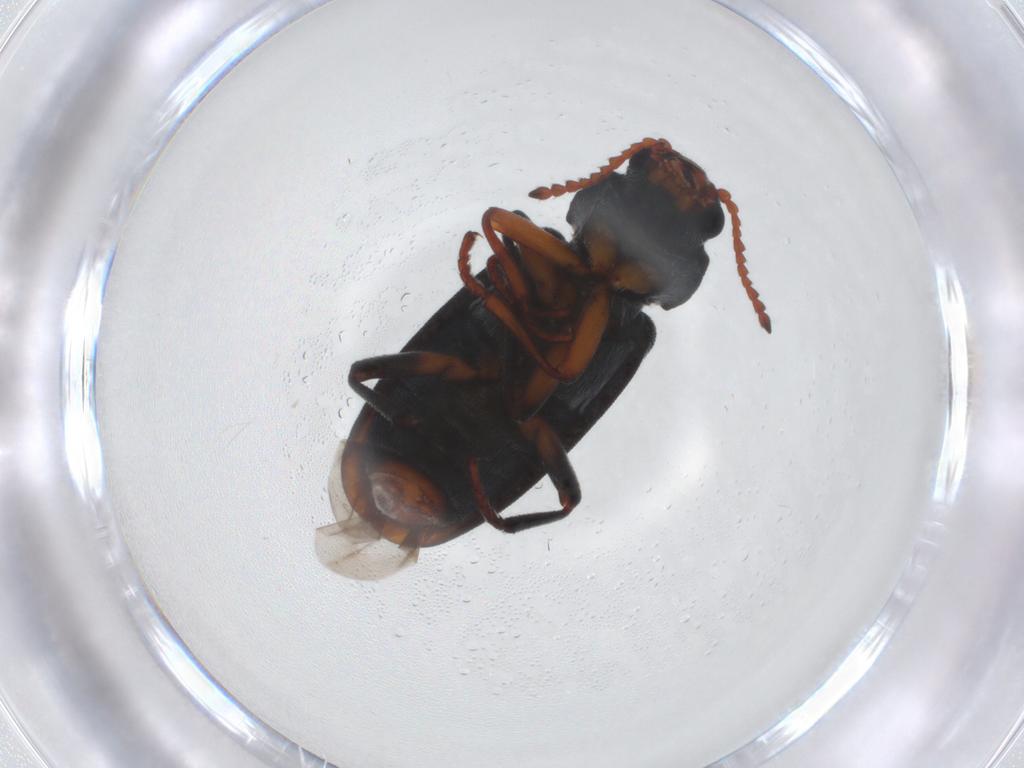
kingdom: Animalia
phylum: Arthropoda
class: Insecta
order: Coleoptera
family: Melyridae
